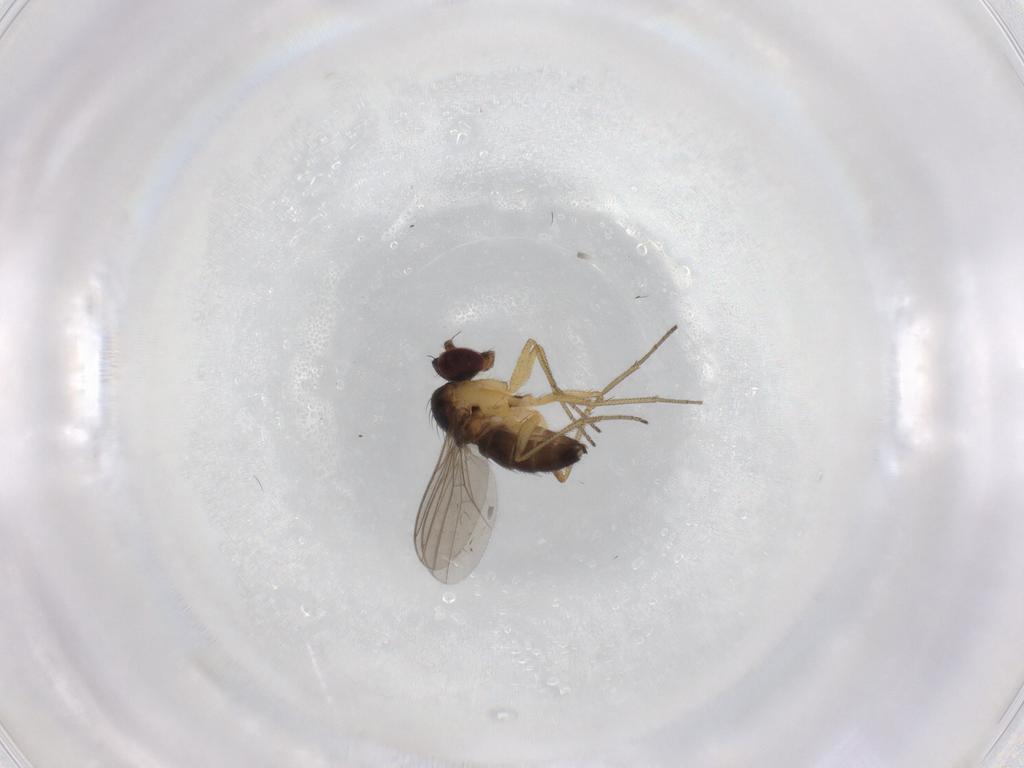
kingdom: Animalia
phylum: Arthropoda
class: Insecta
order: Diptera
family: Dolichopodidae
